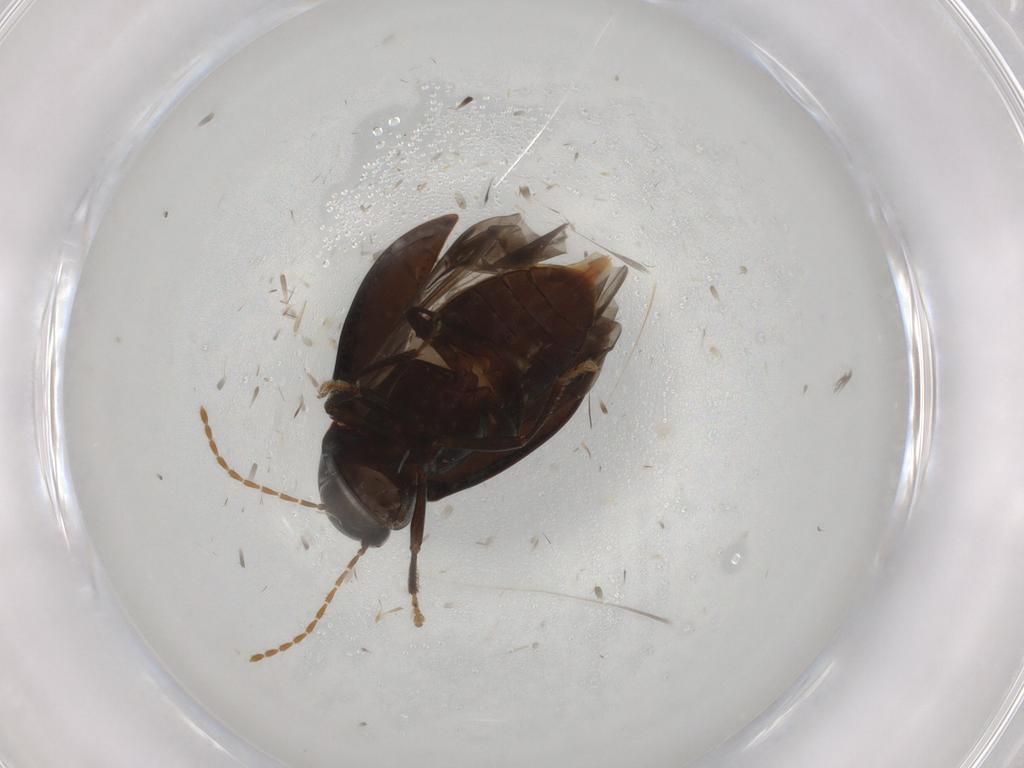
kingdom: Animalia
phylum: Arthropoda
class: Insecta
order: Coleoptera
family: Ptilodactylidae
